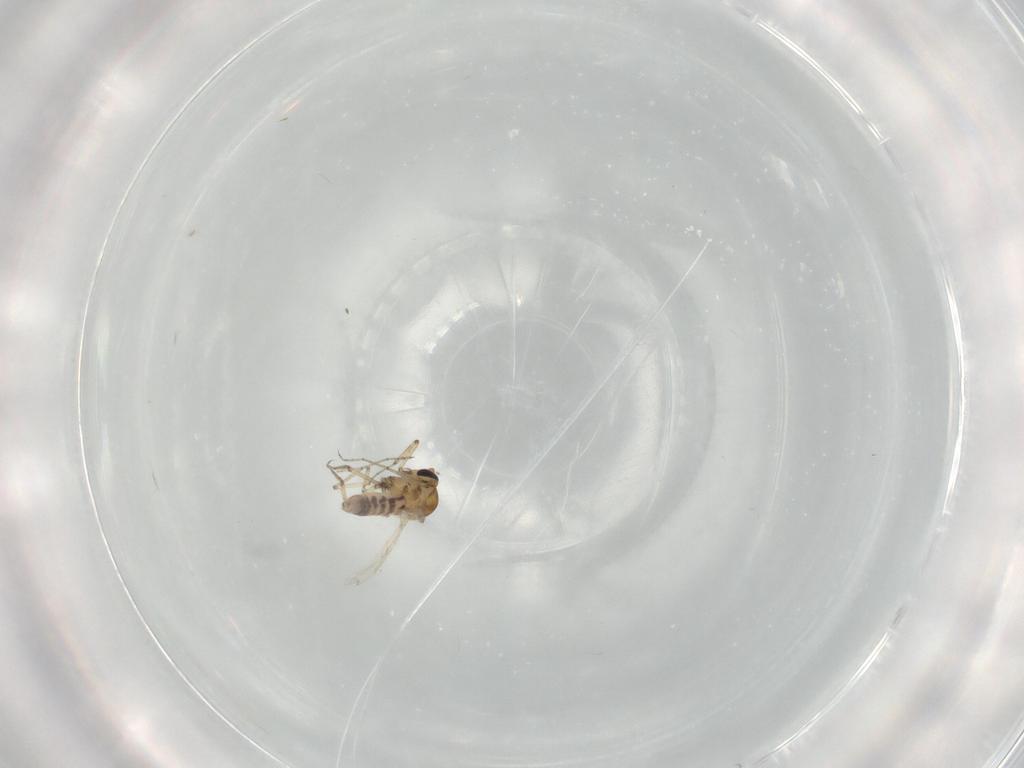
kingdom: Animalia
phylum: Arthropoda
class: Insecta
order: Diptera
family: Ceratopogonidae
